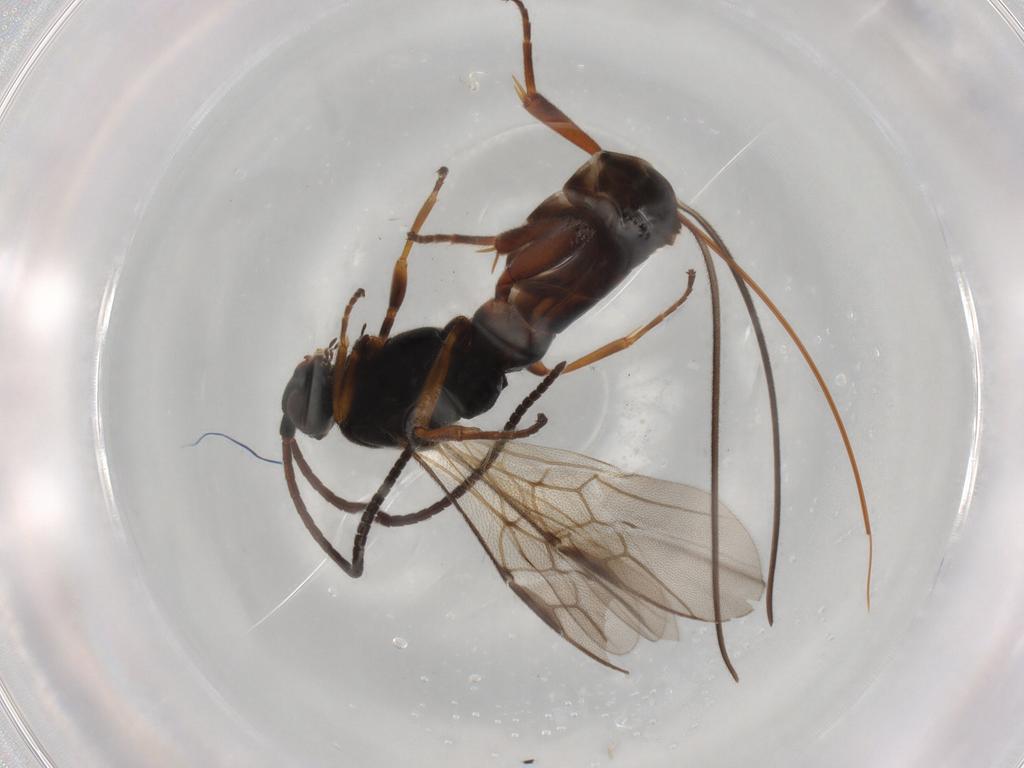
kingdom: Animalia
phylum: Arthropoda
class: Insecta
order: Hymenoptera
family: Braconidae
